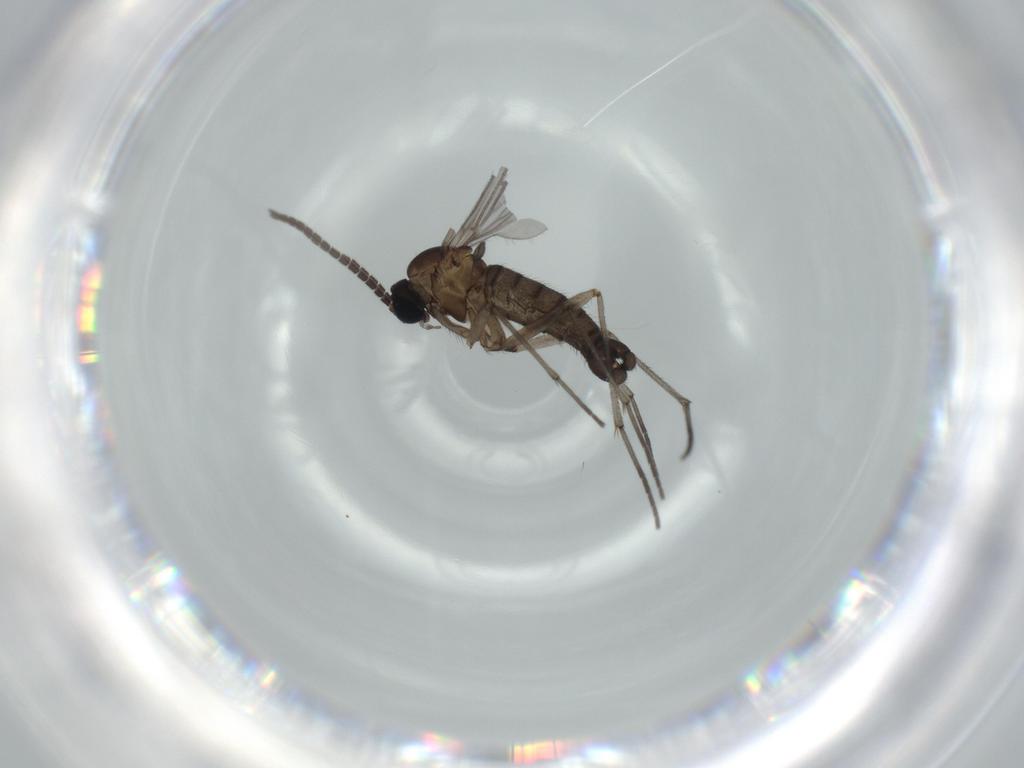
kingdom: Animalia
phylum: Arthropoda
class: Insecta
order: Diptera
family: Sciaridae
